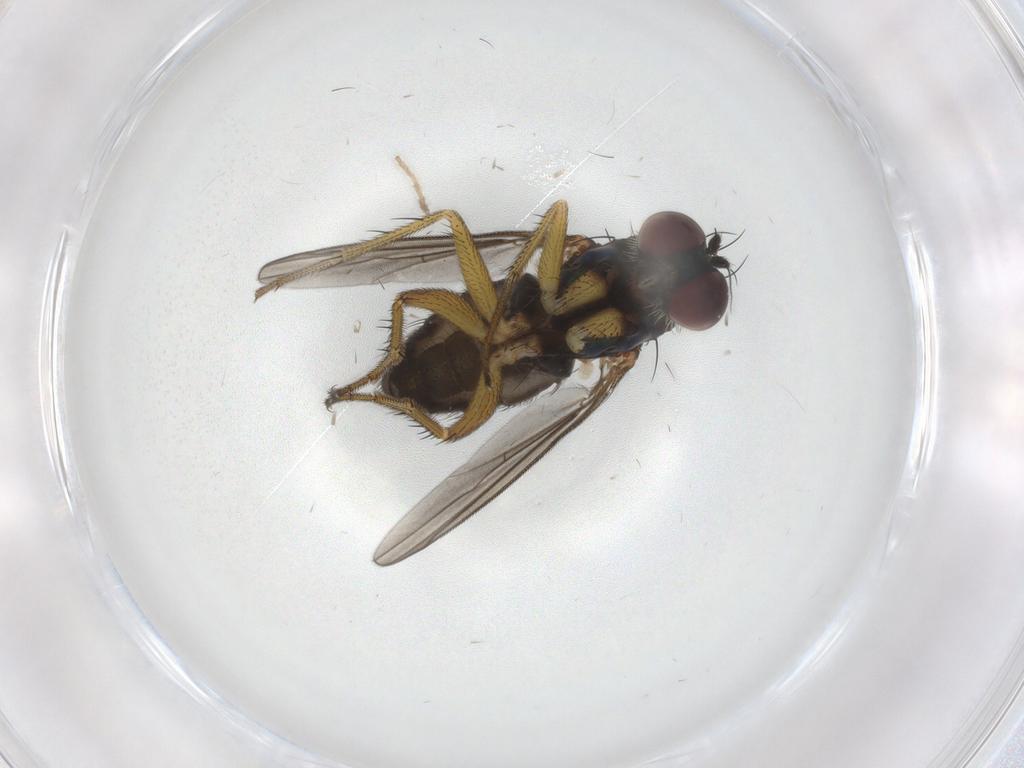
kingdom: Animalia
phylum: Arthropoda
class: Insecta
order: Diptera
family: Dolichopodidae
